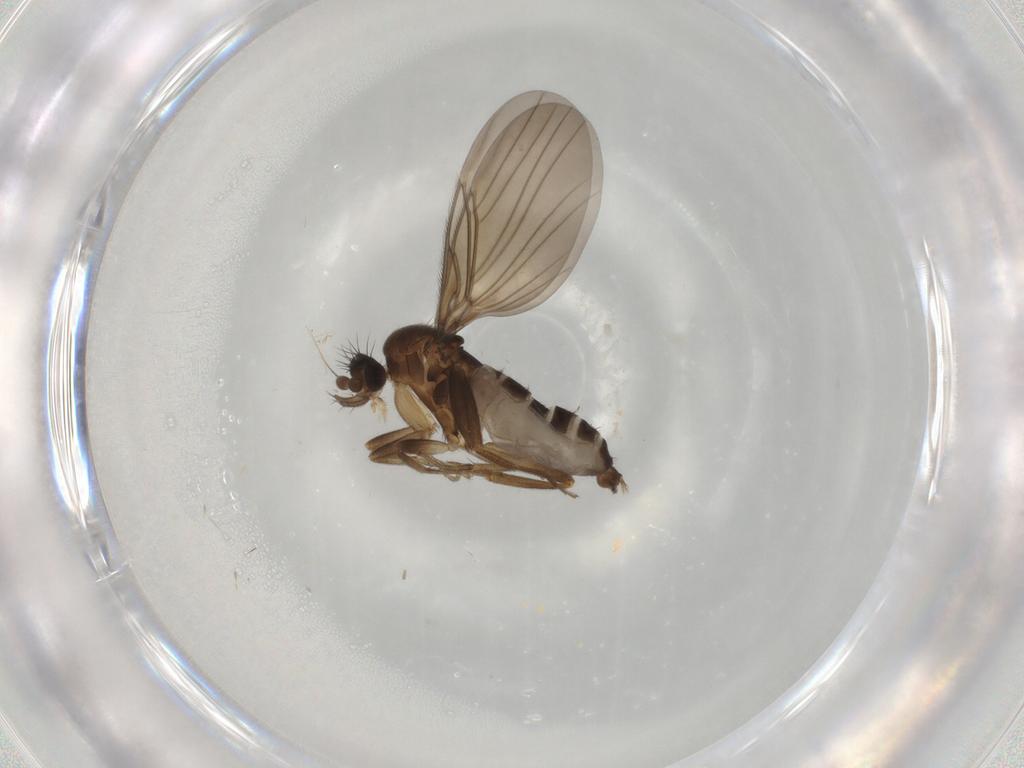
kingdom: Animalia
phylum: Arthropoda
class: Insecta
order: Diptera
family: Phoridae
